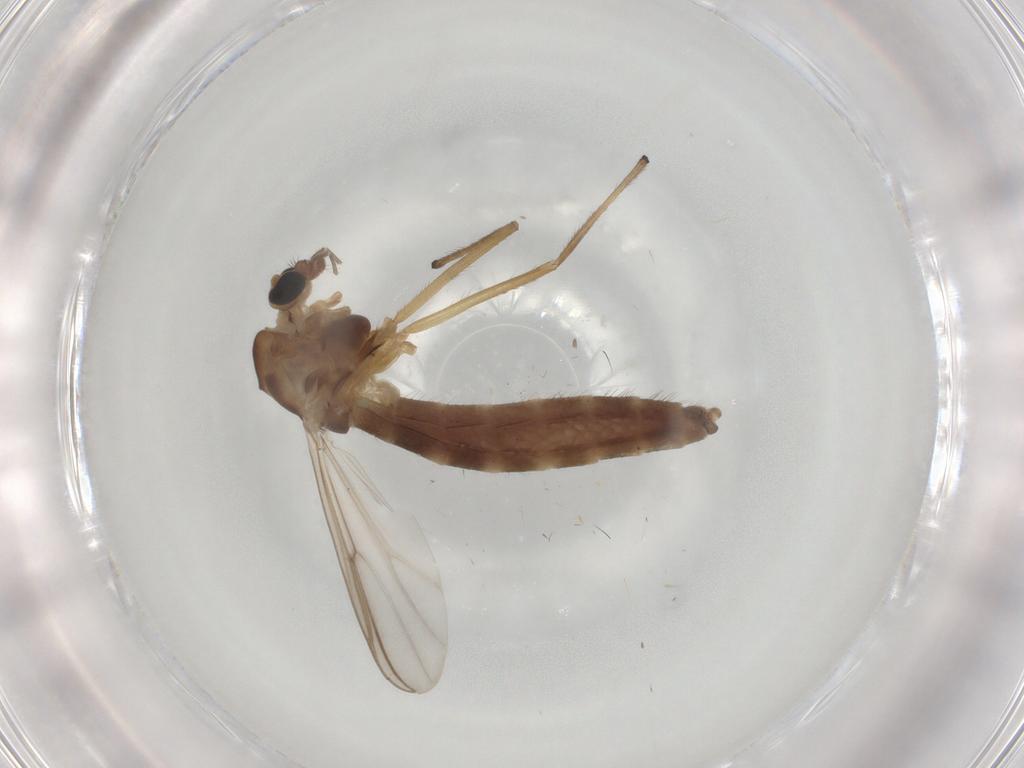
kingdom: Animalia
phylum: Arthropoda
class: Insecta
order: Diptera
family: Chironomidae
